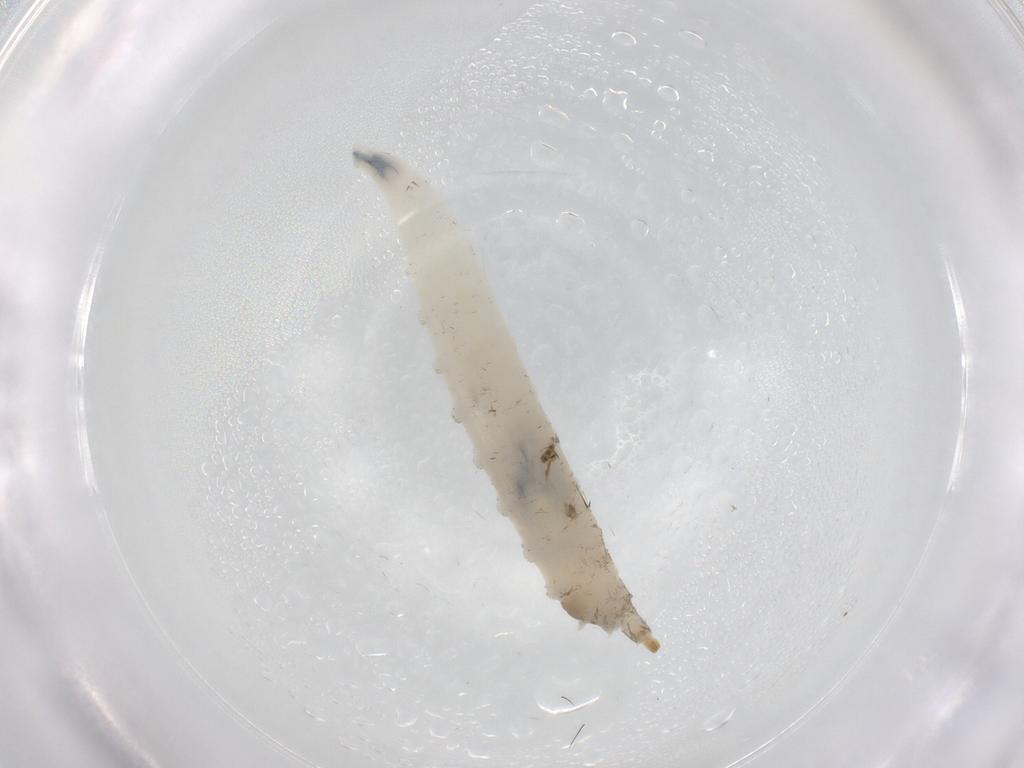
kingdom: Animalia
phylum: Arthropoda
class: Insecta
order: Diptera
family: Drosophilidae
